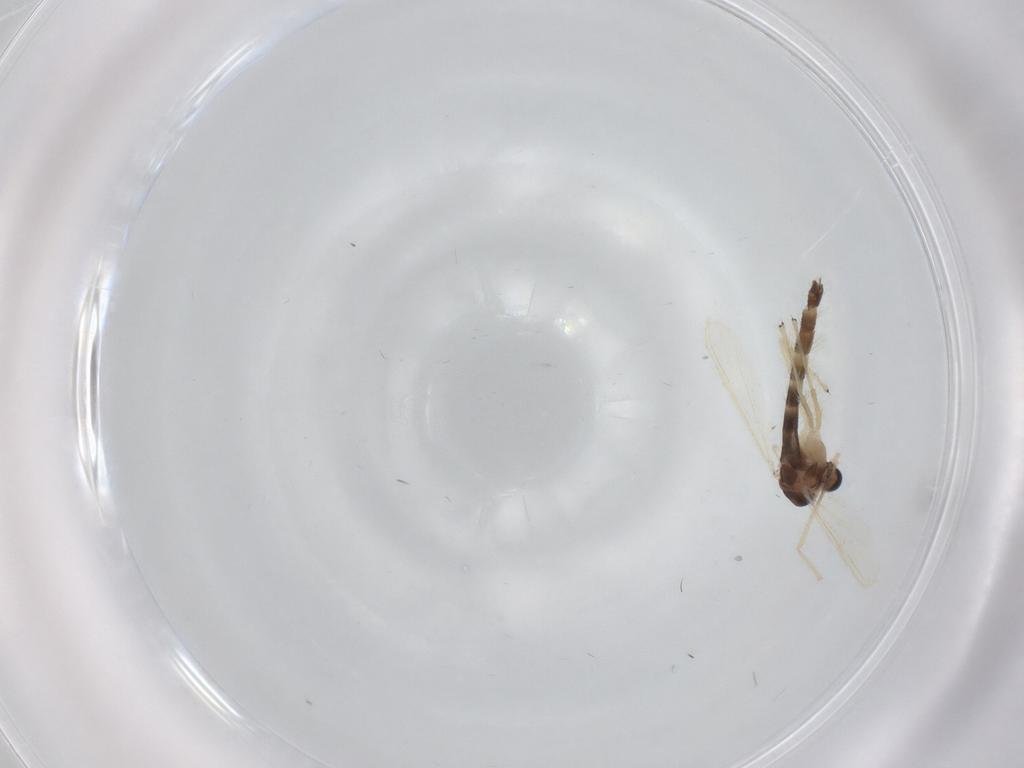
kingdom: Animalia
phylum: Arthropoda
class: Insecta
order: Diptera
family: Chironomidae
